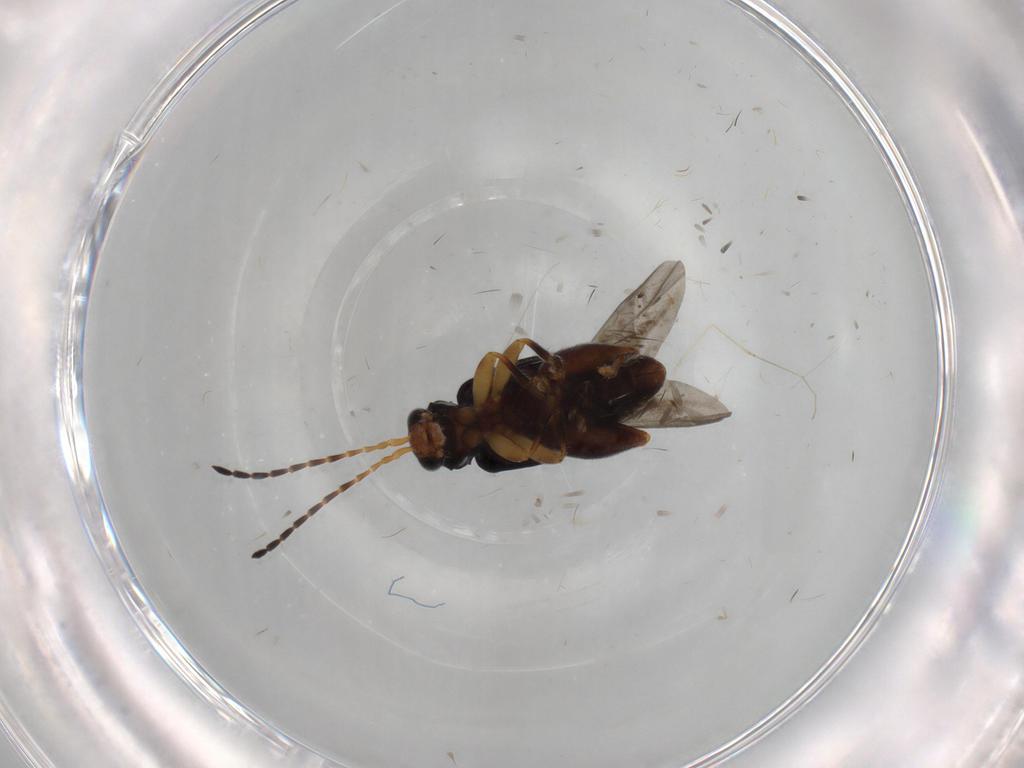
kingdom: Animalia
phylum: Arthropoda
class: Insecta
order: Coleoptera
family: Chrysomelidae
